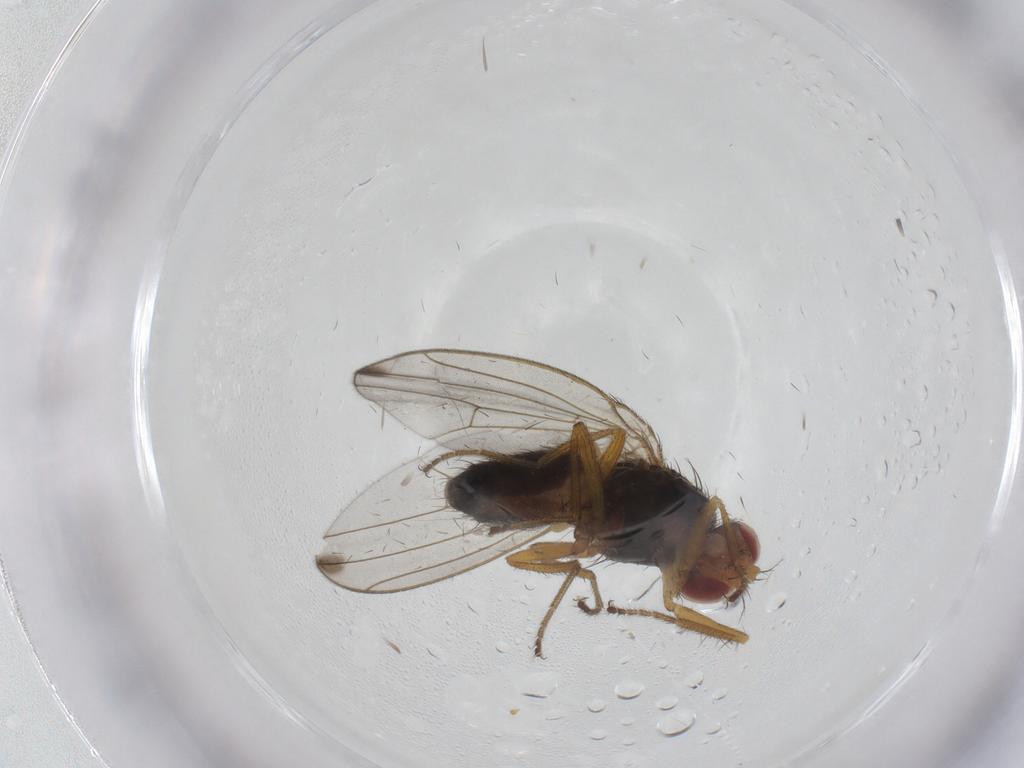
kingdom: Animalia
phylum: Arthropoda
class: Insecta
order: Diptera
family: Drosophilidae
